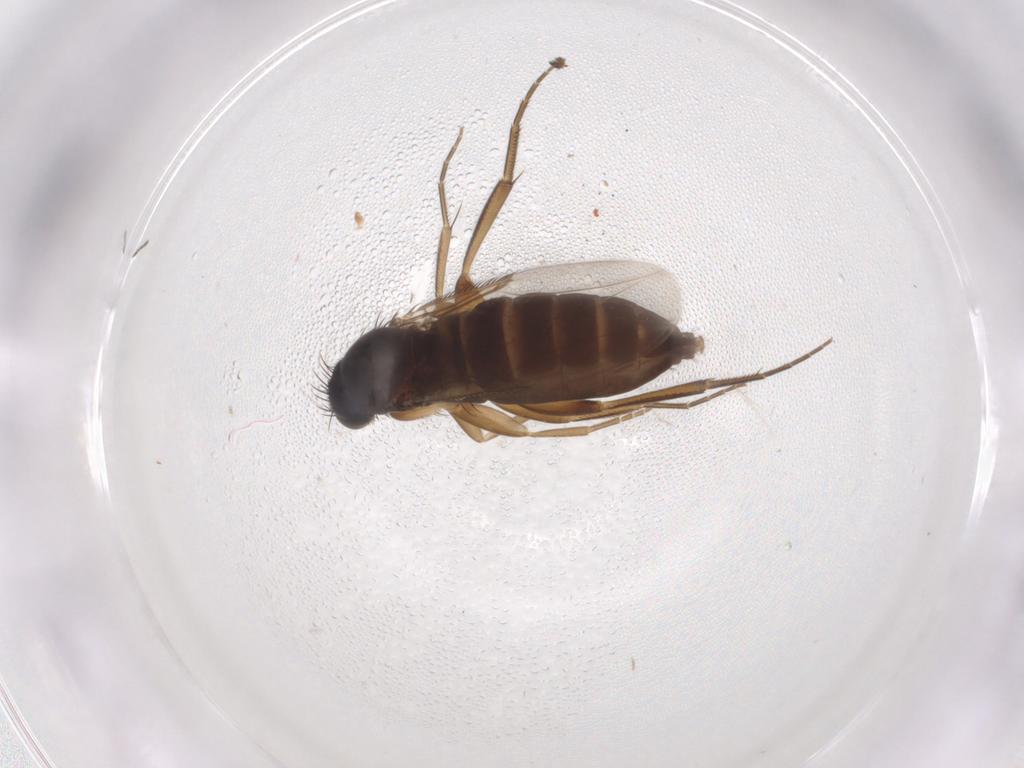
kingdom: Animalia
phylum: Arthropoda
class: Insecta
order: Diptera
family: Phoridae
